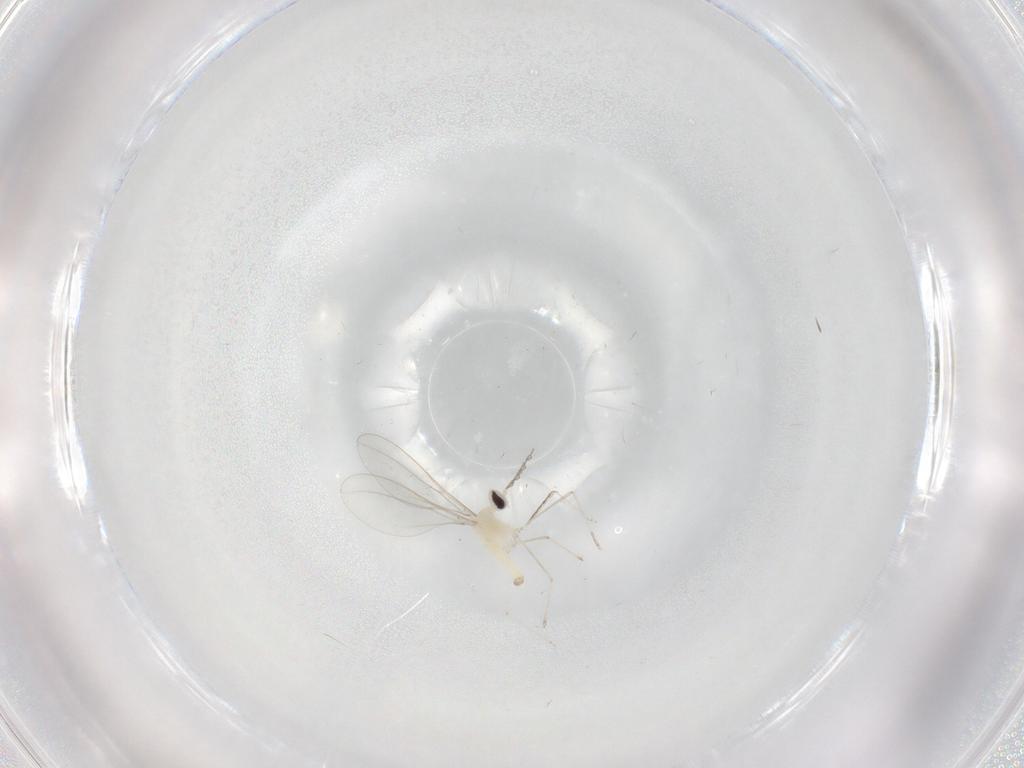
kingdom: Animalia
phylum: Arthropoda
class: Insecta
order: Diptera
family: Cecidomyiidae
